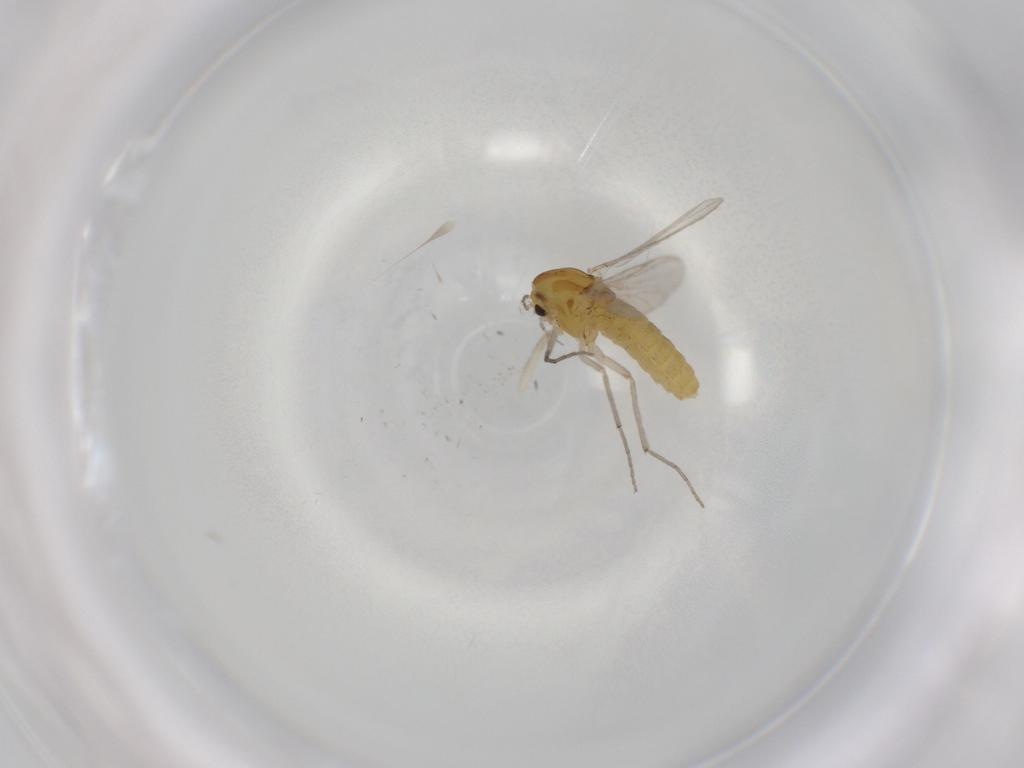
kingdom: Animalia
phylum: Arthropoda
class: Insecta
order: Diptera
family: Chironomidae
